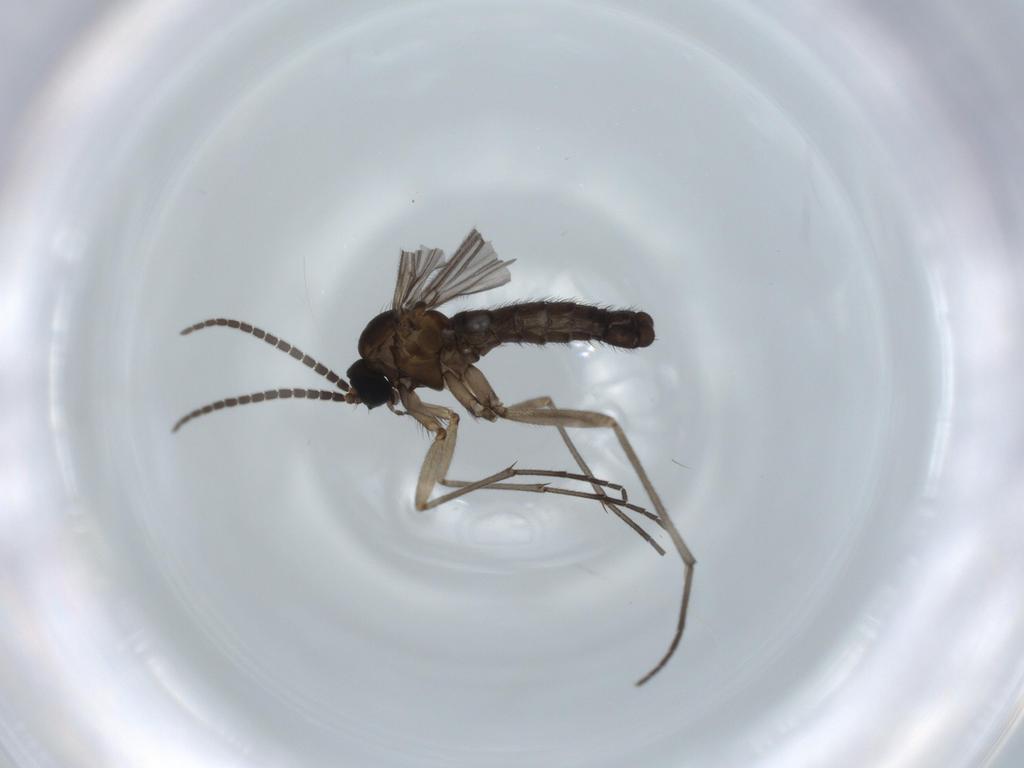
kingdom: Animalia
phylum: Arthropoda
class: Insecta
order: Diptera
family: Sciaridae
